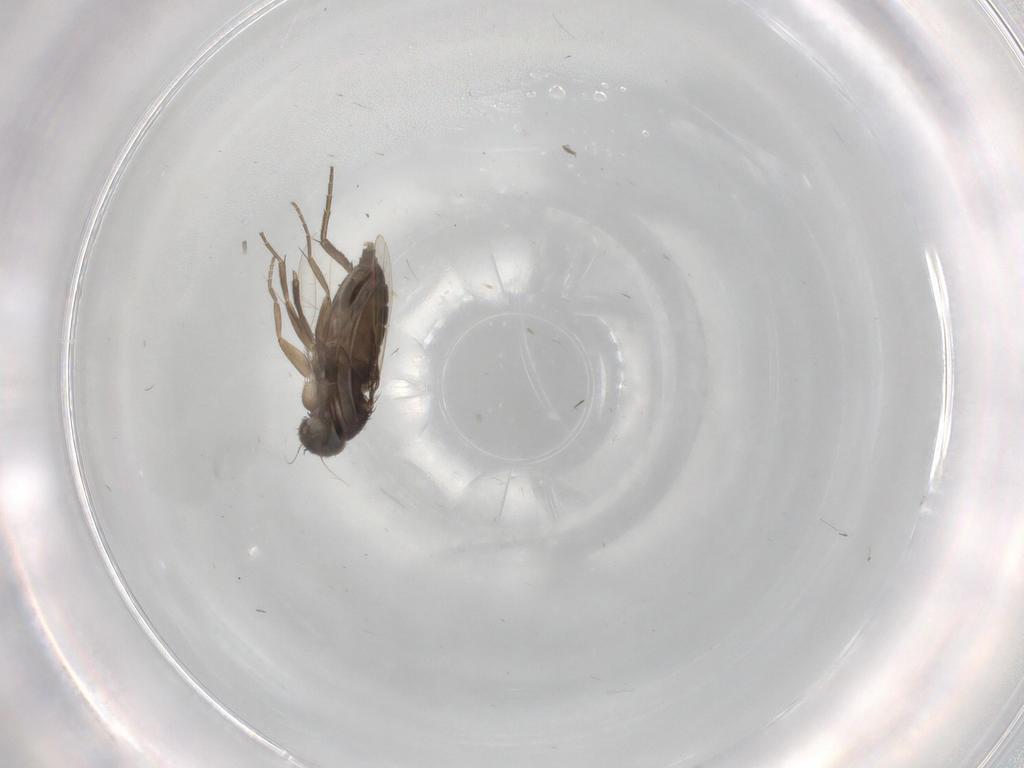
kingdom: Animalia
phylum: Arthropoda
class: Insecta
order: Diptera
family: Phoridae
